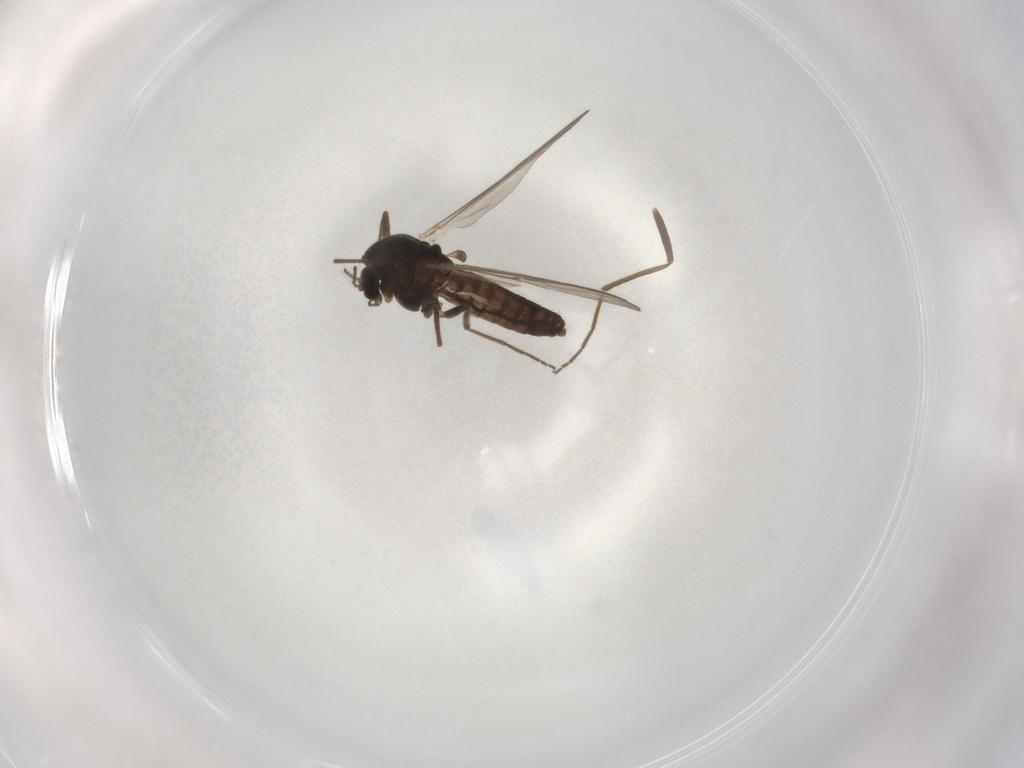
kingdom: Animalia
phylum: Arthropoda
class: Insecta
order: Diptera
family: Chironomidae
